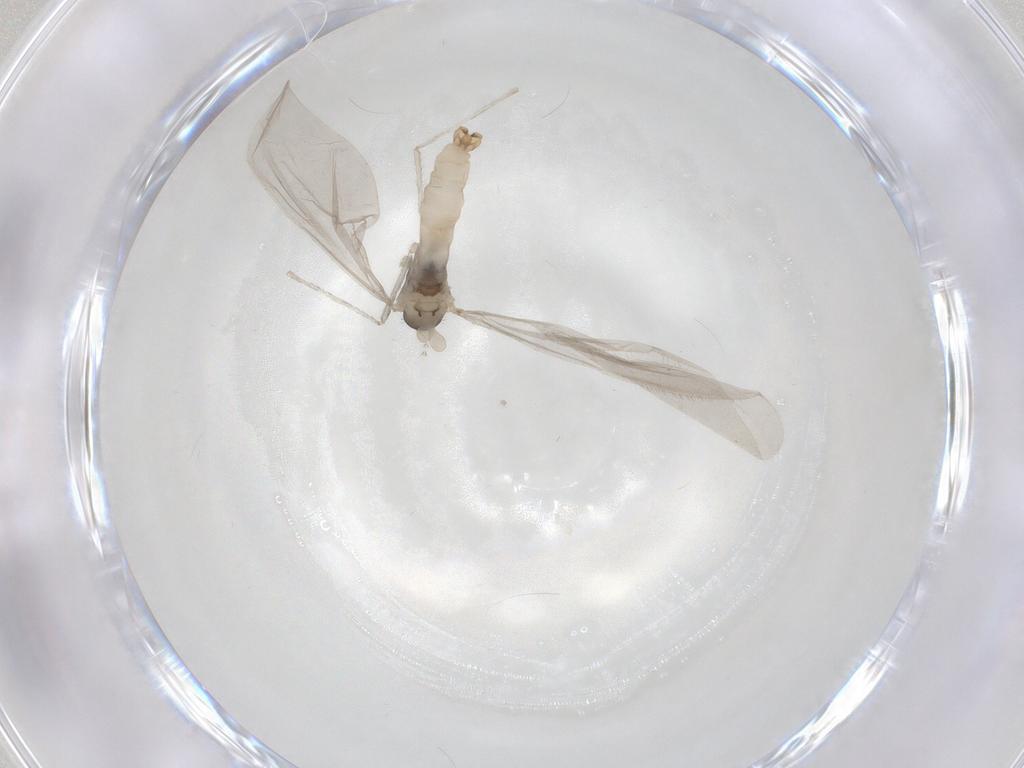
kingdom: Animalia
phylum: Arthropoda
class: Insecta
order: Diptera
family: Cecidomyiidae
